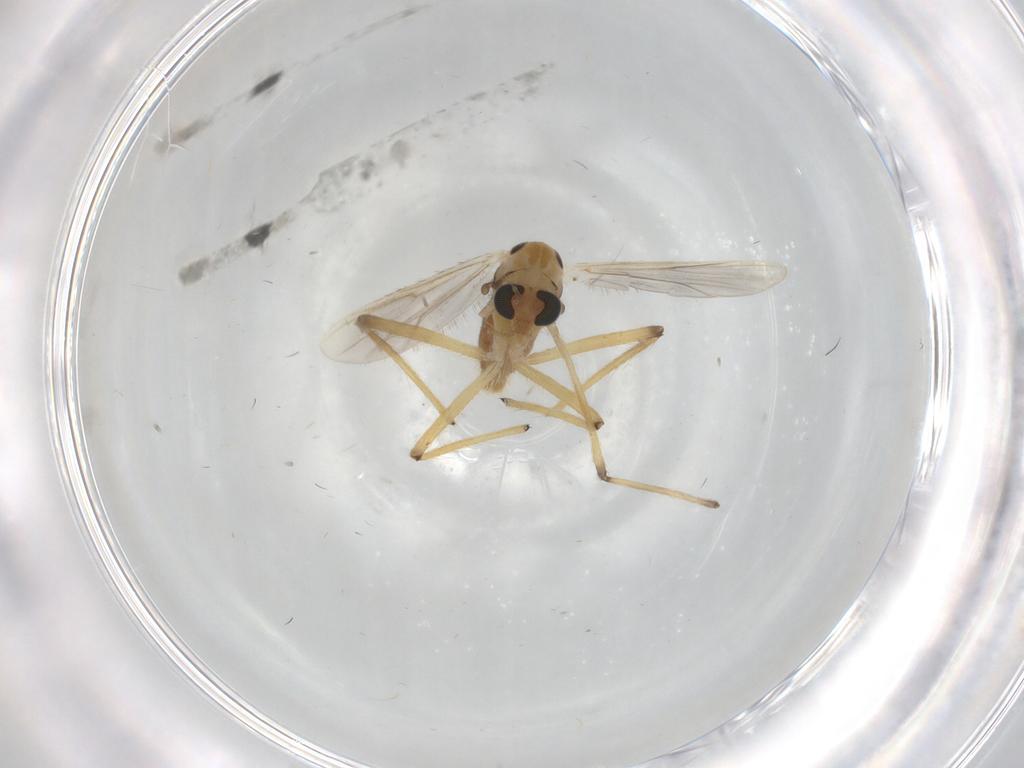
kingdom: Animalia
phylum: Arthropoda
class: Insecta
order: Diptera
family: Chironomidae
